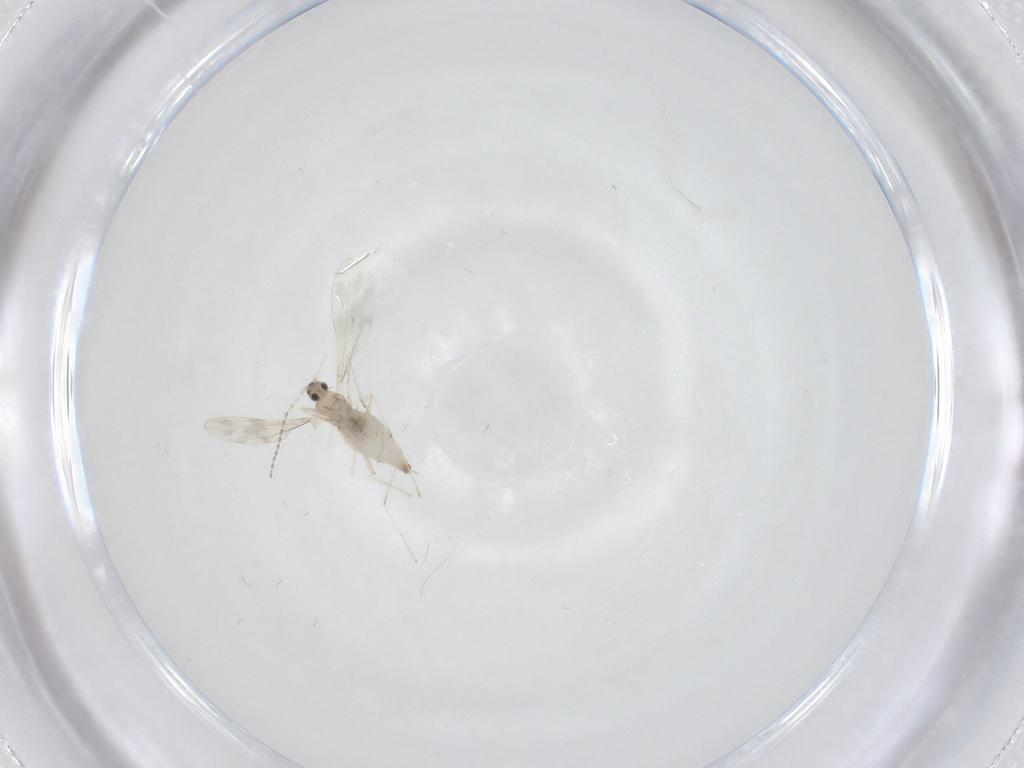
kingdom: Animalia
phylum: Arthropoda
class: Insecta
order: Diptera
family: Cecidomyiidae
